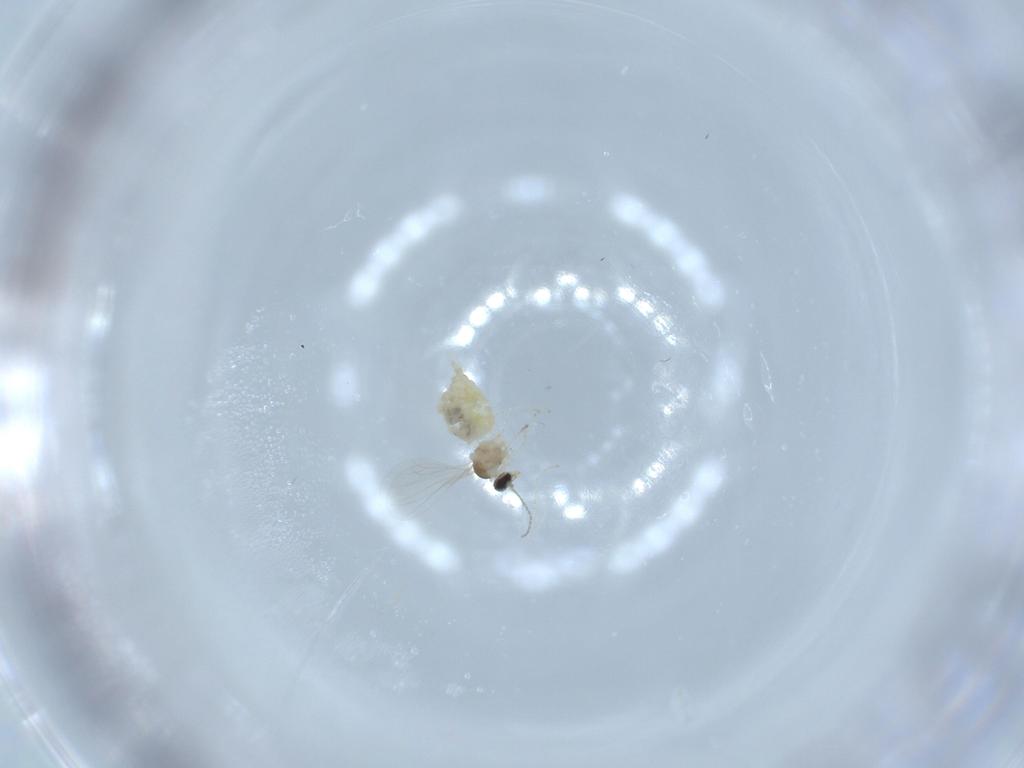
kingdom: Animalia
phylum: Arthropoda
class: Insecta
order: Diptera
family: Cecidomyiidae
